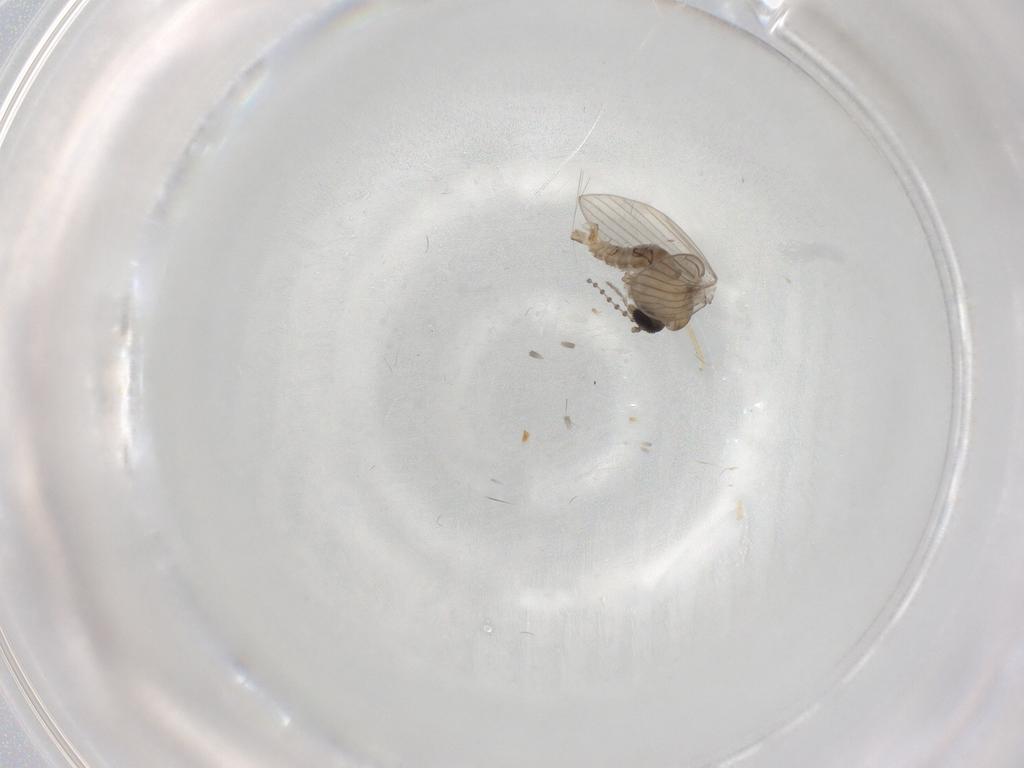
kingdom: Animalia
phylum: Arthropoda
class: Insecta
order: Diptera
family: Psychodidae
